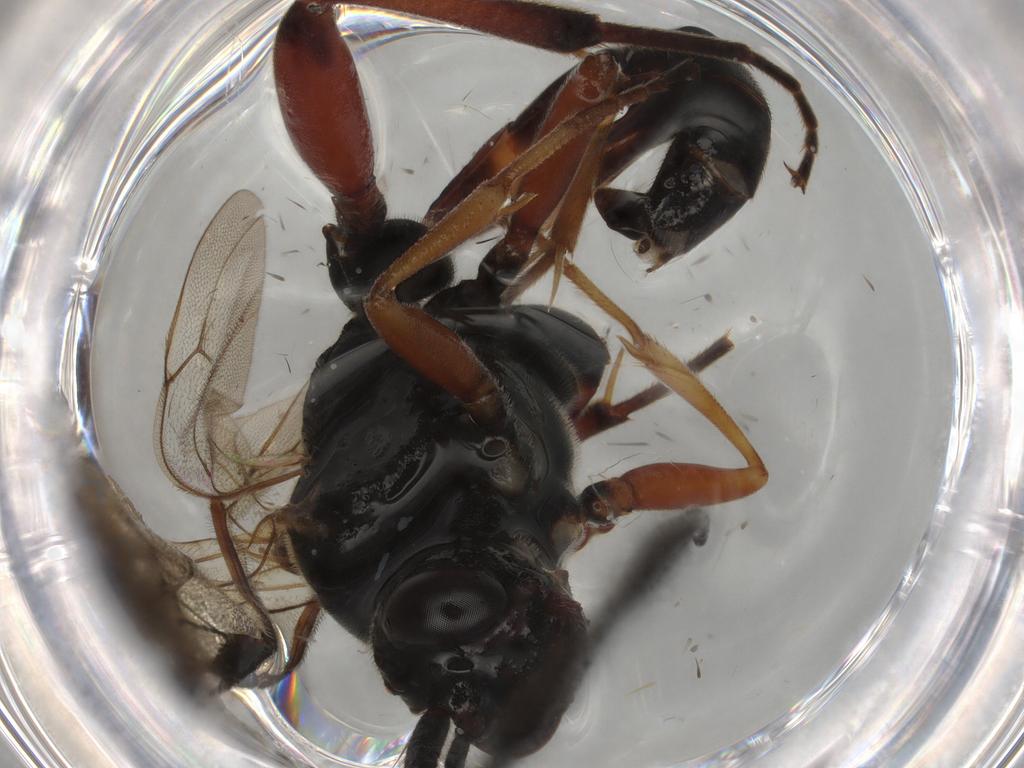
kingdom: Animalia
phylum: Arthropoda
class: Insecta
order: Hymenoptera
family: Ichneumonidae
